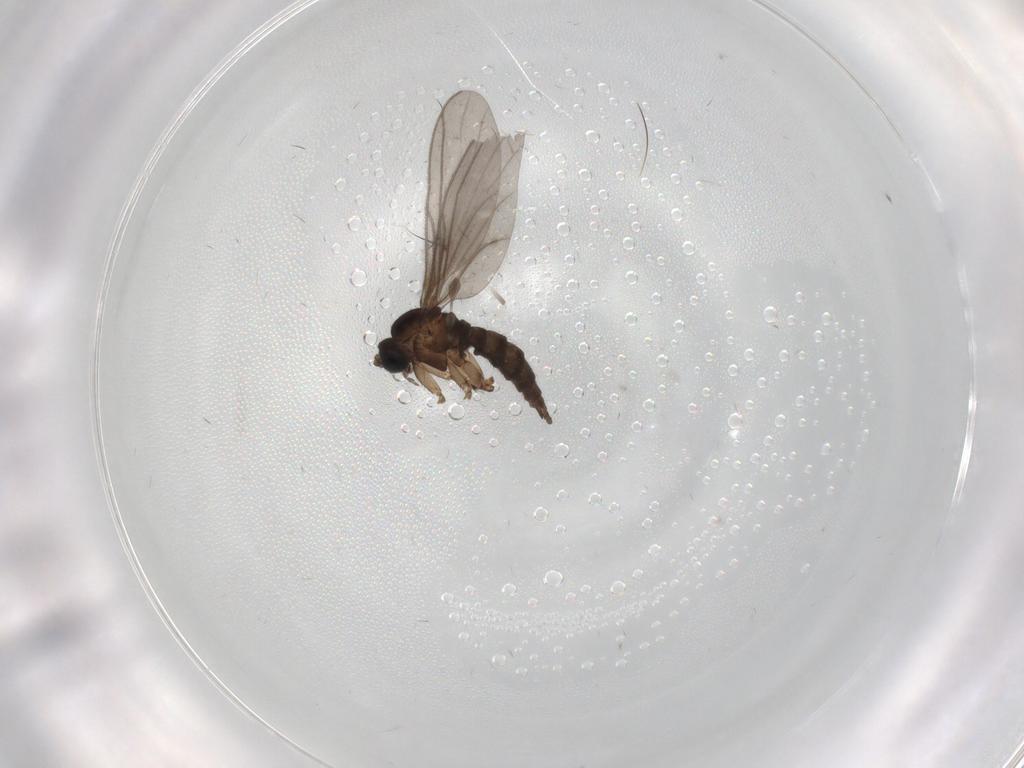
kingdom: Animalia
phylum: Arthropoda
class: Insecta
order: Diptera
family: Sciaridae
